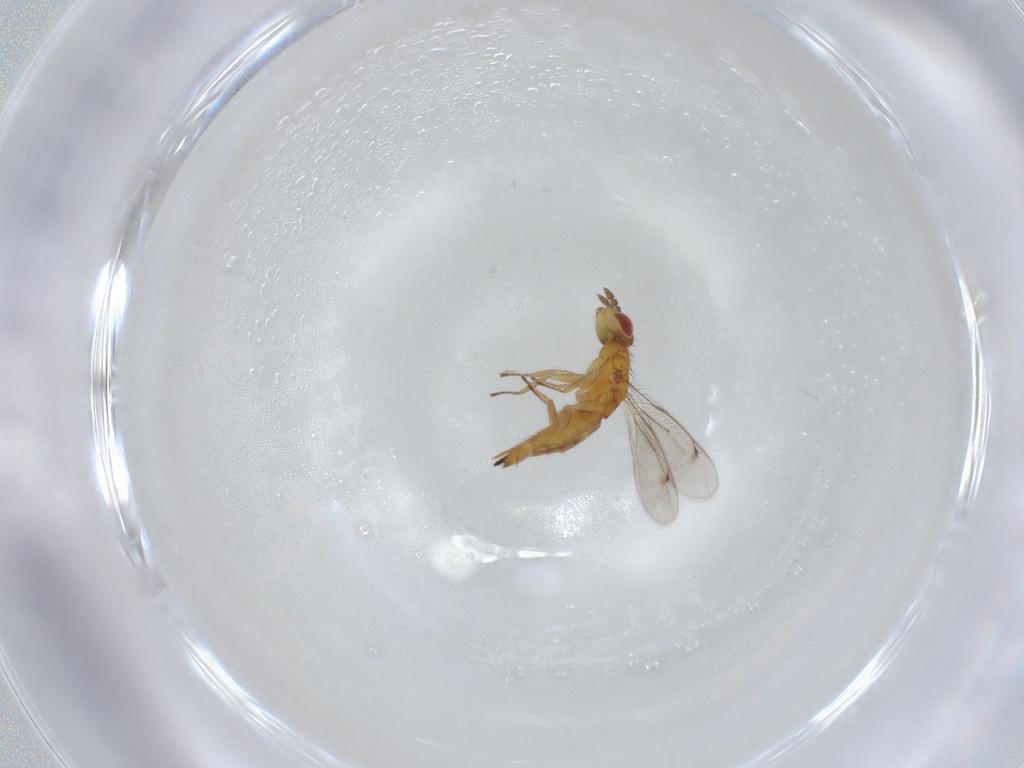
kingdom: Animalia
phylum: Arthropoda
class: Insecta
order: Hymenoptera
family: Eulophidae
